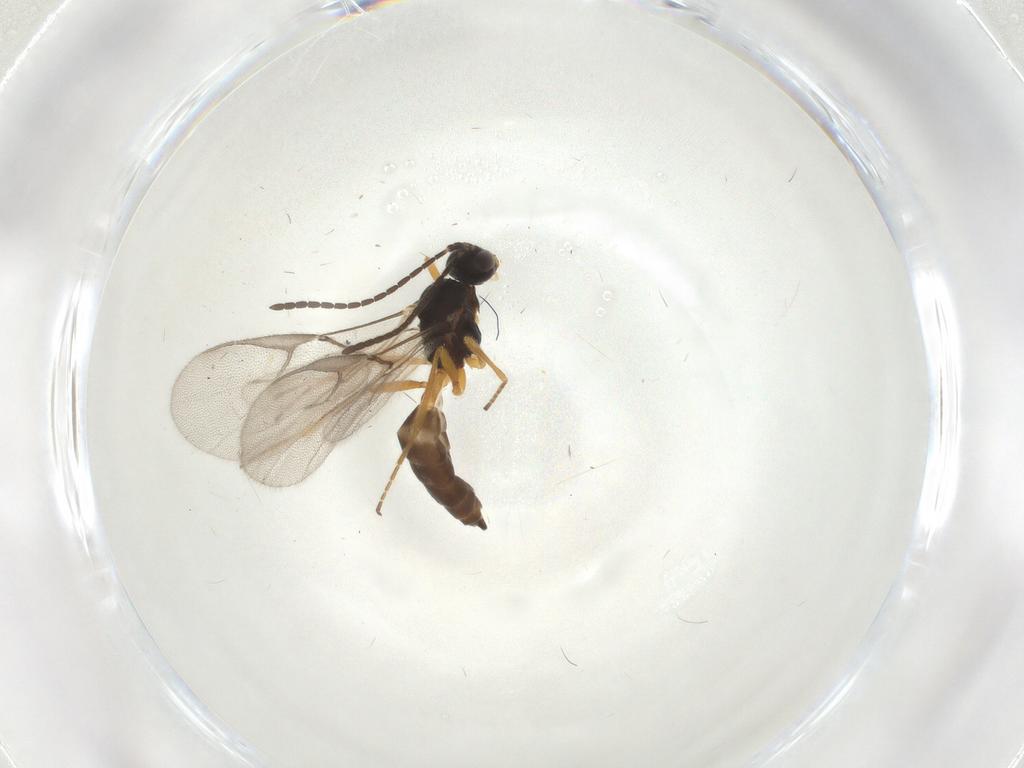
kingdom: Animalia
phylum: Arthropoda
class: Insecta
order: Hymenoptera
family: Braconidae
